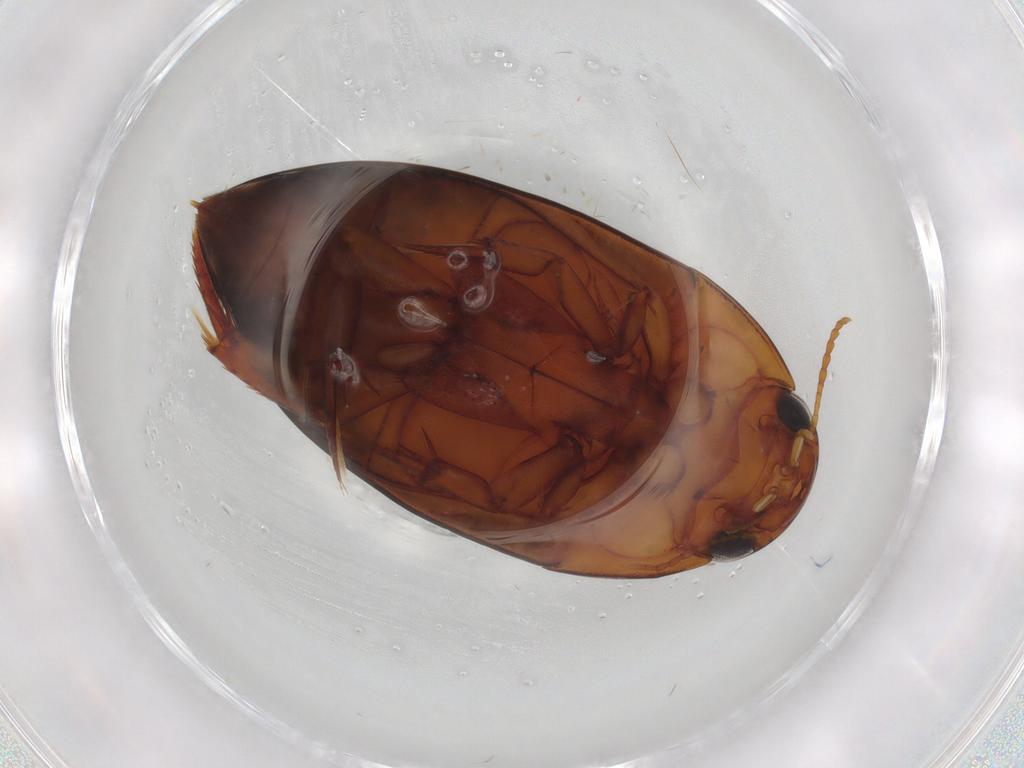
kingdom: Animalia
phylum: Arthropoda
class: Insecta
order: Coleoptera
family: Noteridae
